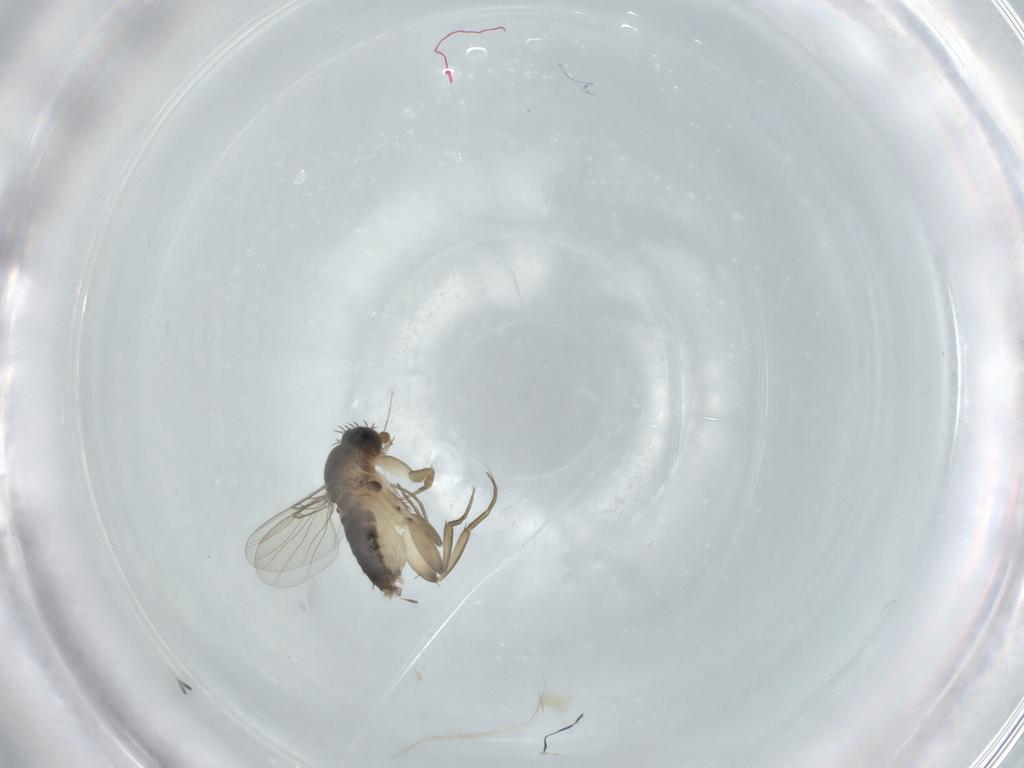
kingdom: Animalia
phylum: Arthropoda
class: Insecta
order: Diptera
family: Phoridae
